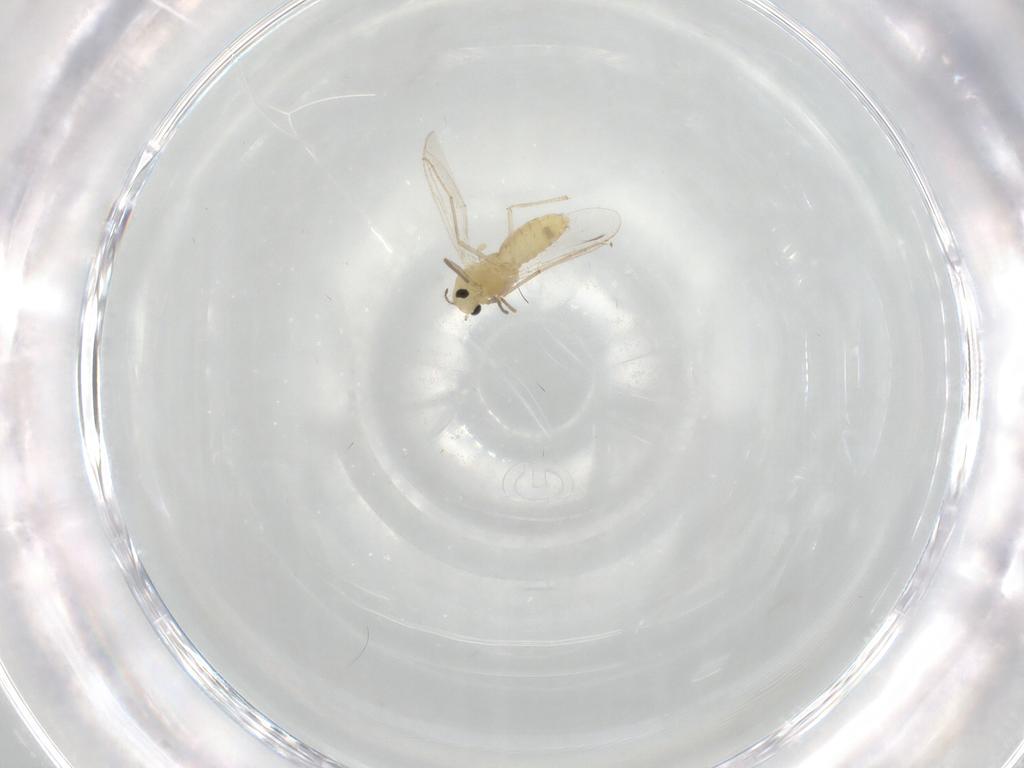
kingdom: Animalia
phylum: Arthropoda
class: Insecta
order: Diptera
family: Chironomidae
